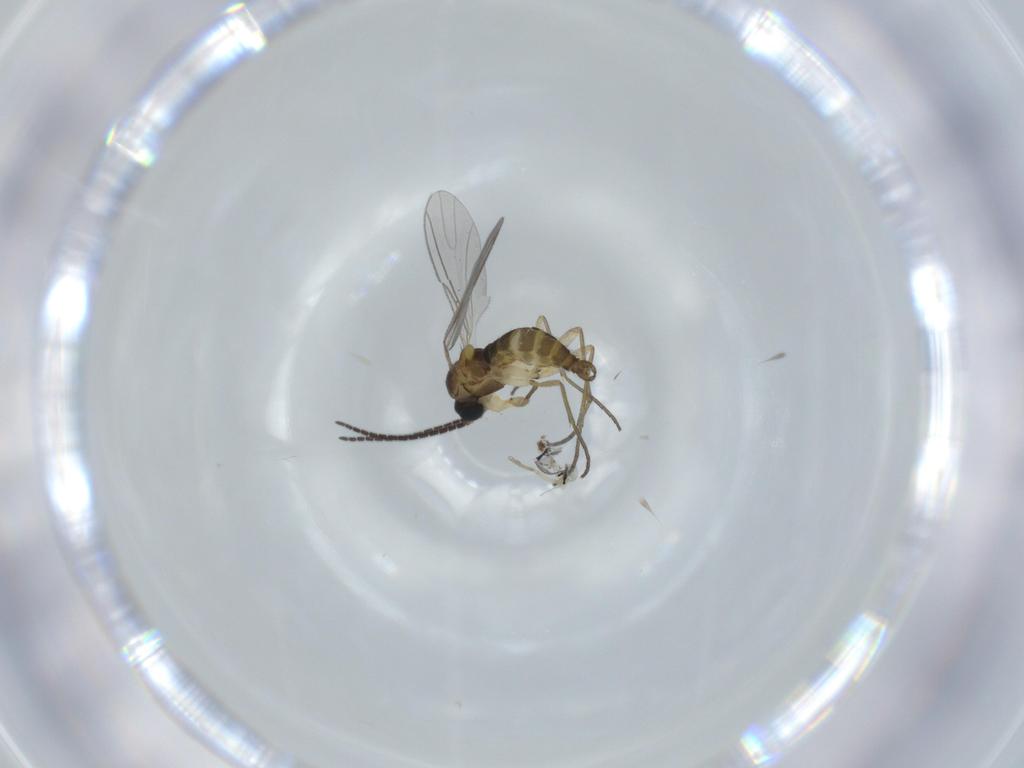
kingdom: Animalia
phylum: Arthropoda
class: Insecta
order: Diptera
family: Sciaridae
